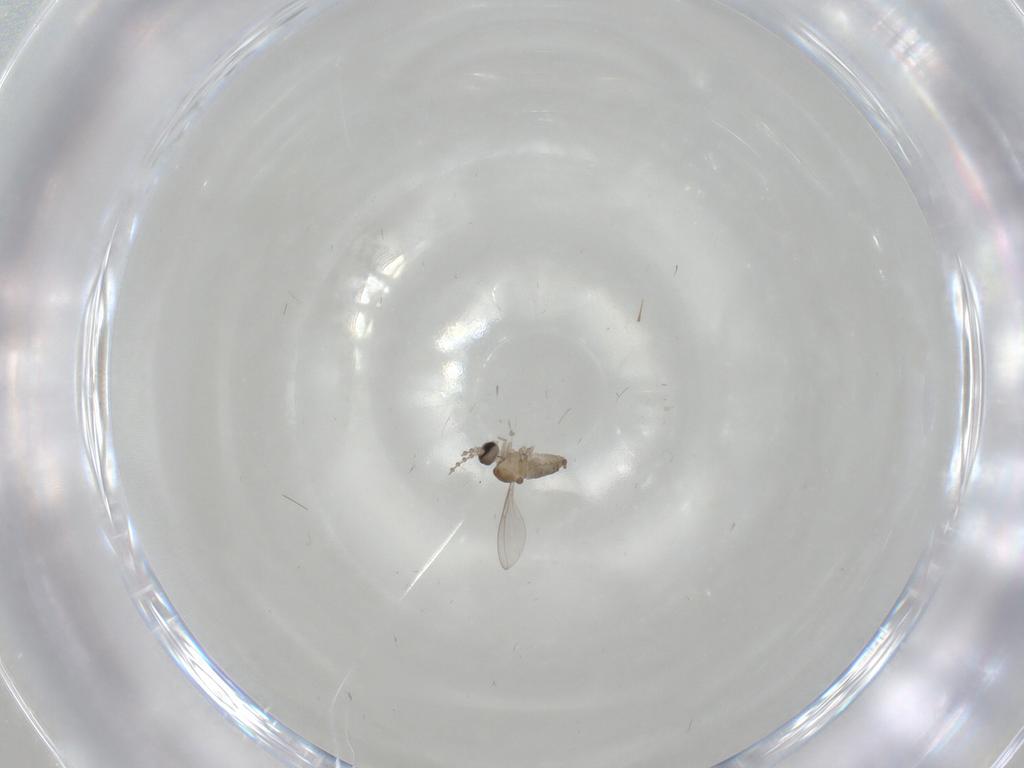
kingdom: Animalia
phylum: Arthropoda
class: Insecta
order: Diptera
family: Cecidomyiidae
